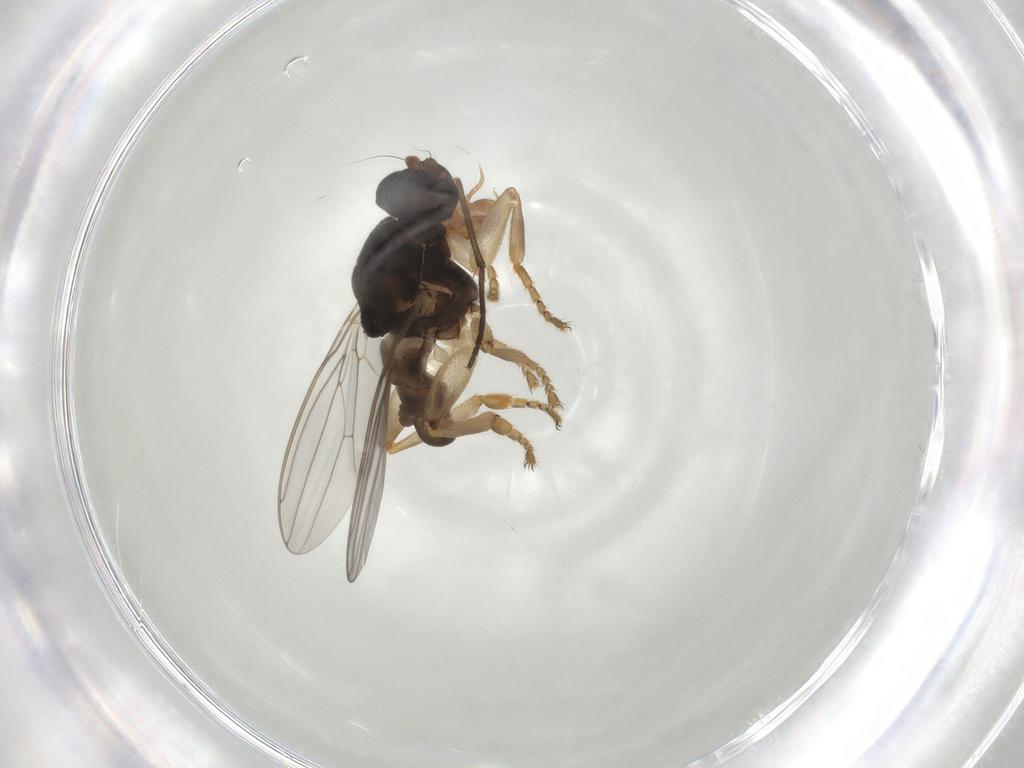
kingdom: Animalia
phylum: Arthropoda
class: Insecta
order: Diptera
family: Sphaeroceridae
